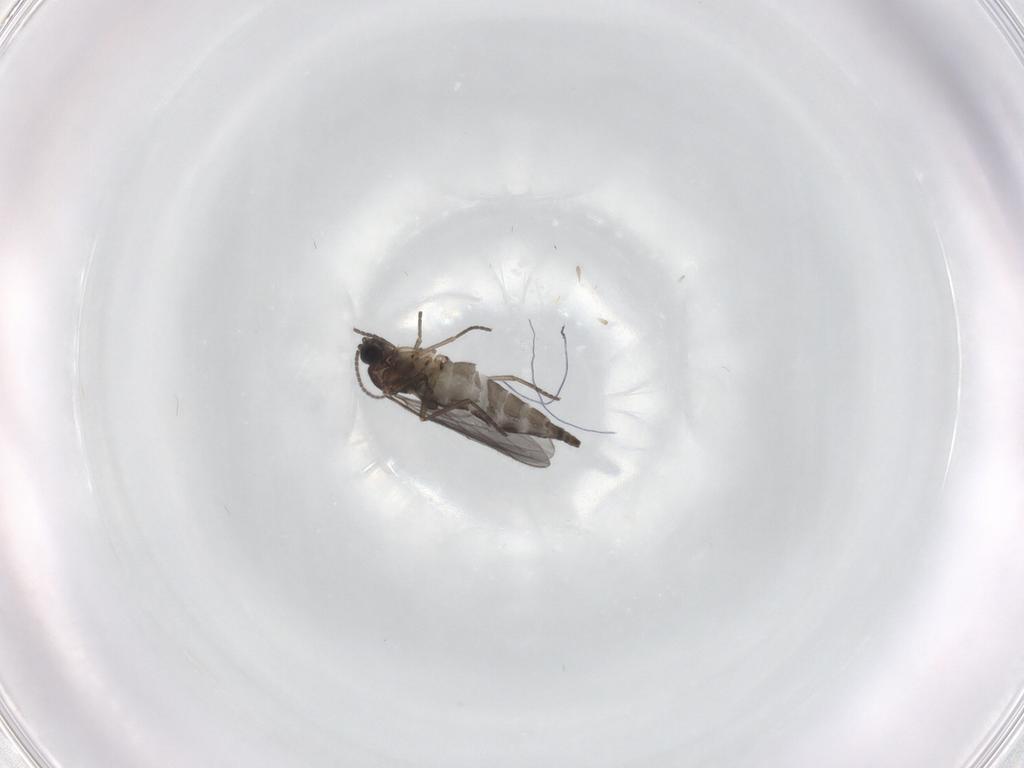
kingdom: Animalia
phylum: Arthropoda
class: Insecta
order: Diptera
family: Sciaridae
